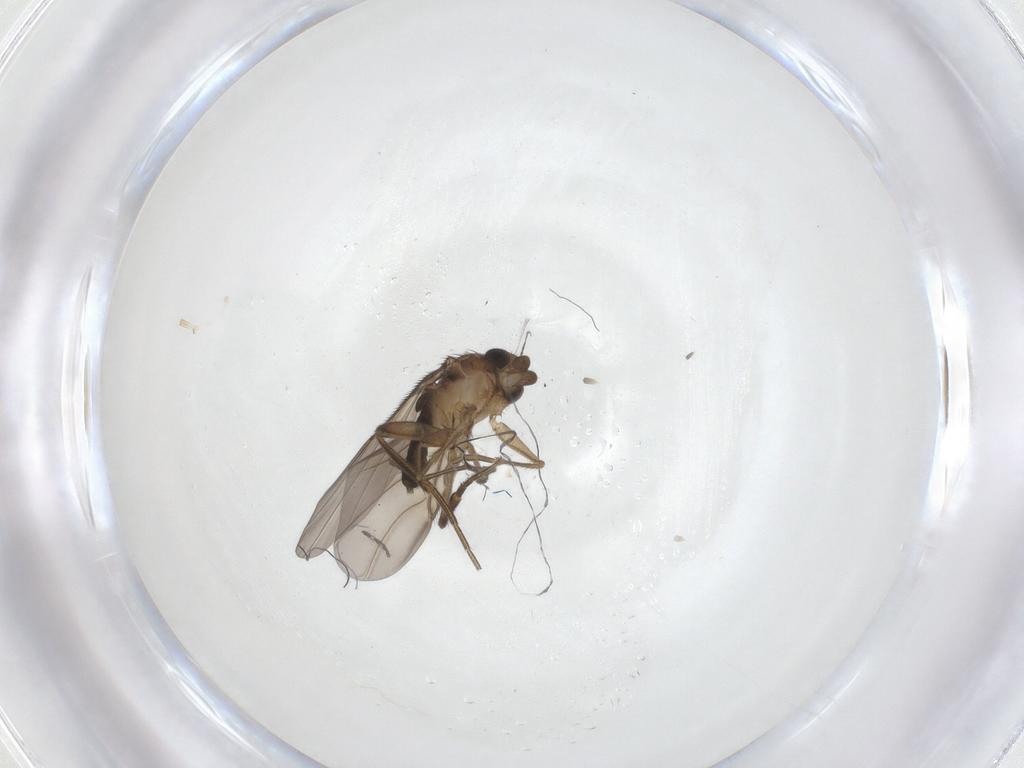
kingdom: Animalia
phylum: Arthropoda
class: Insecta
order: Diptera
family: Phoridae
